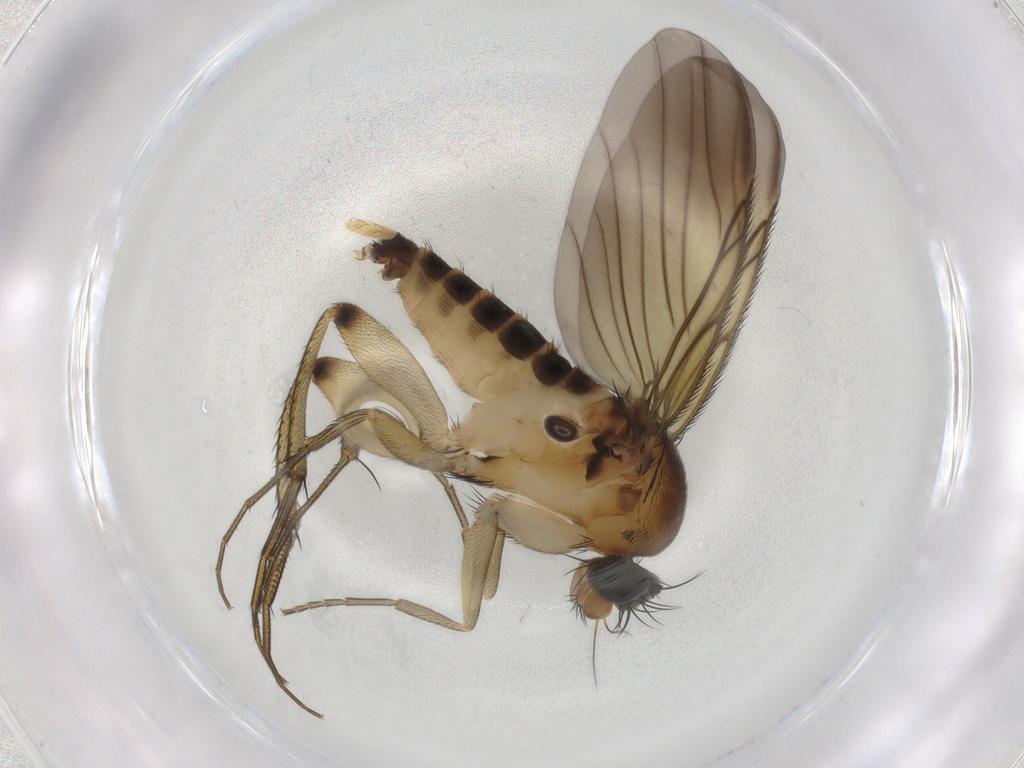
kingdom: Animalia
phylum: Arthropoda
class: Insecta
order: Diptera
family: Phoridae
